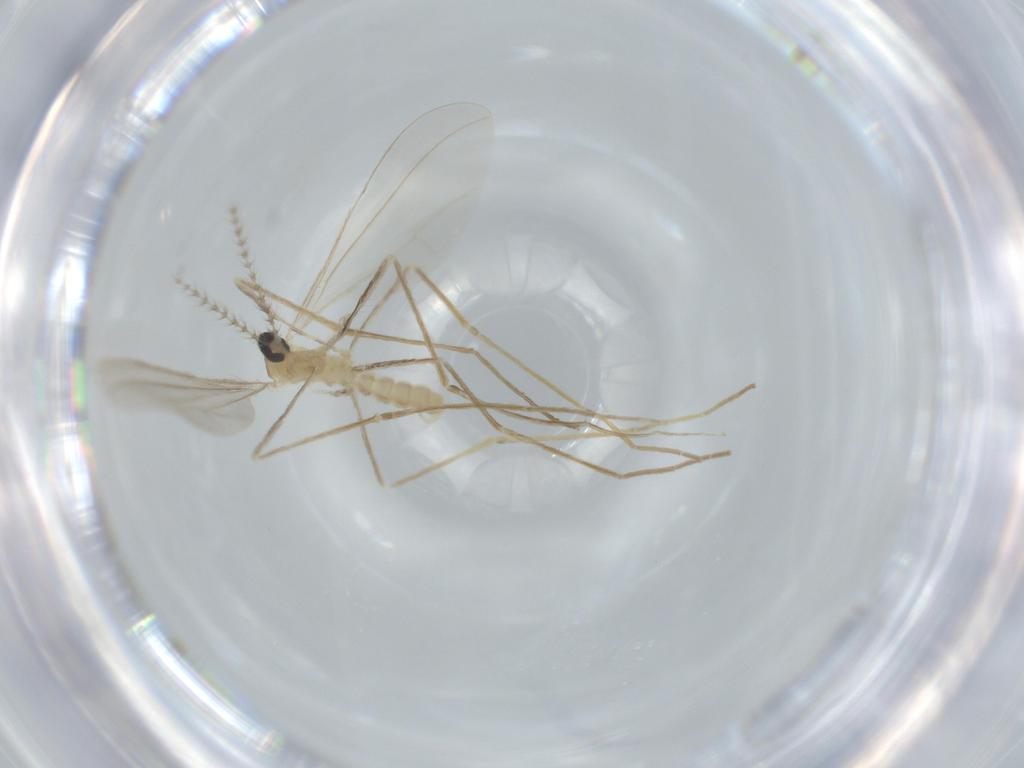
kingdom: Animalia
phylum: Arthropoda
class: Insecta
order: Diptera
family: Cecidomyiidae
